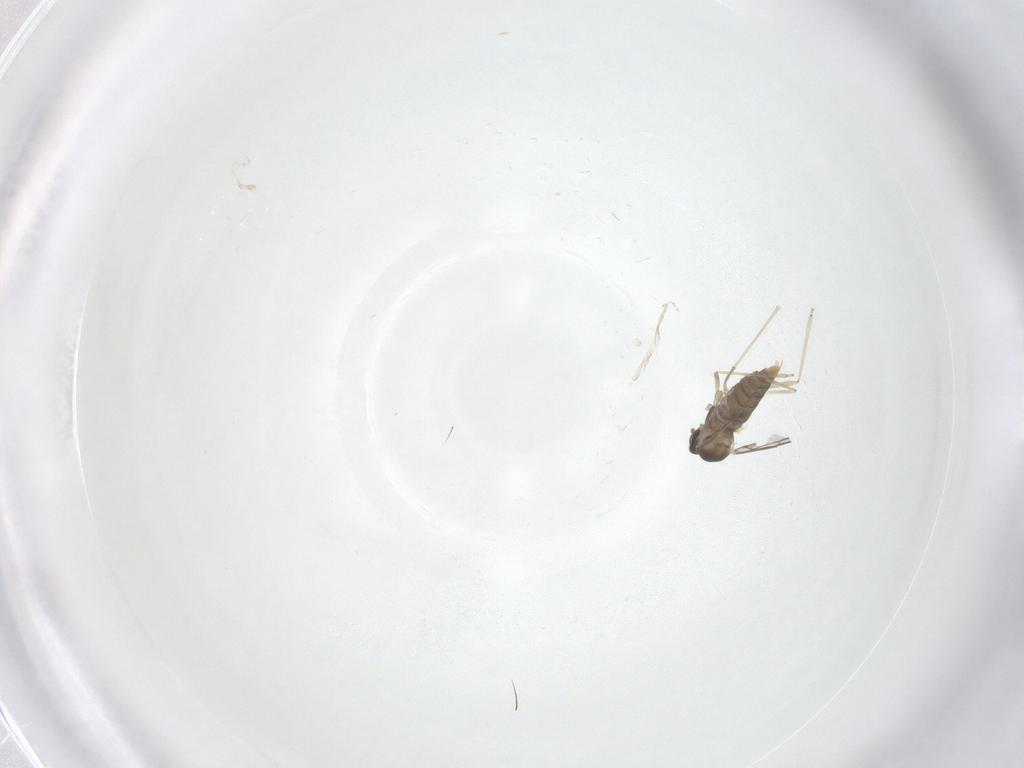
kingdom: Animalia
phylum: Arthropoda
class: Insecta
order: Diptera
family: Cecidomyiidae
